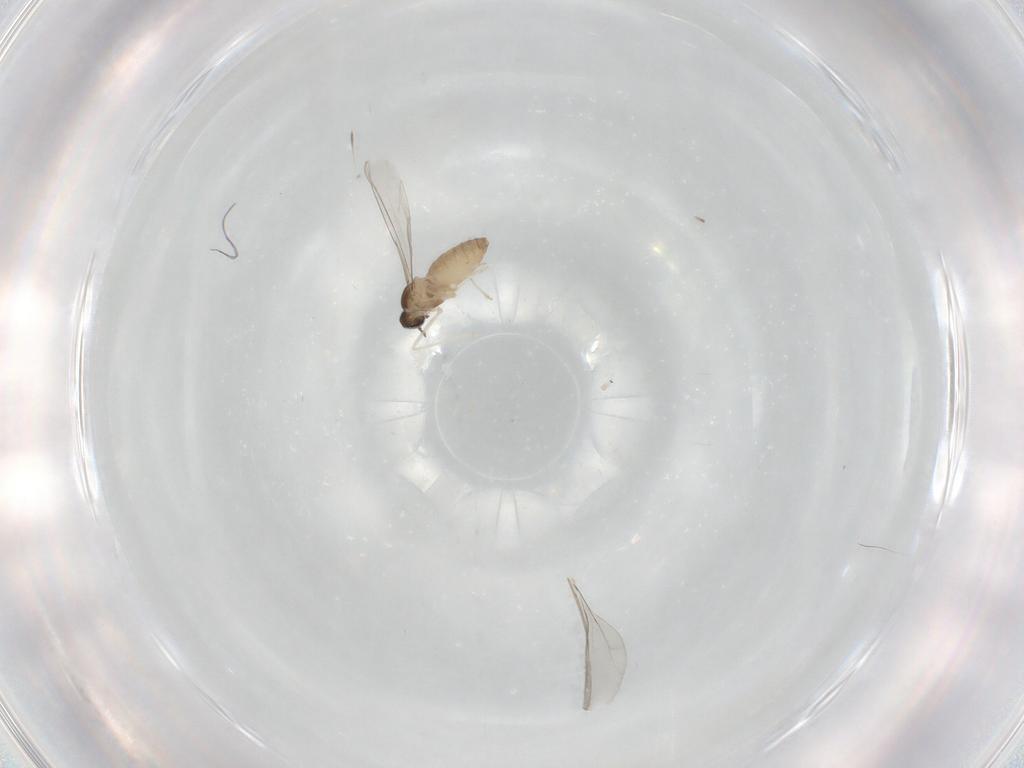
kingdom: Animalia
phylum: Arthropoda
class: Insecta
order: Diptera
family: Cecidomyiidae
